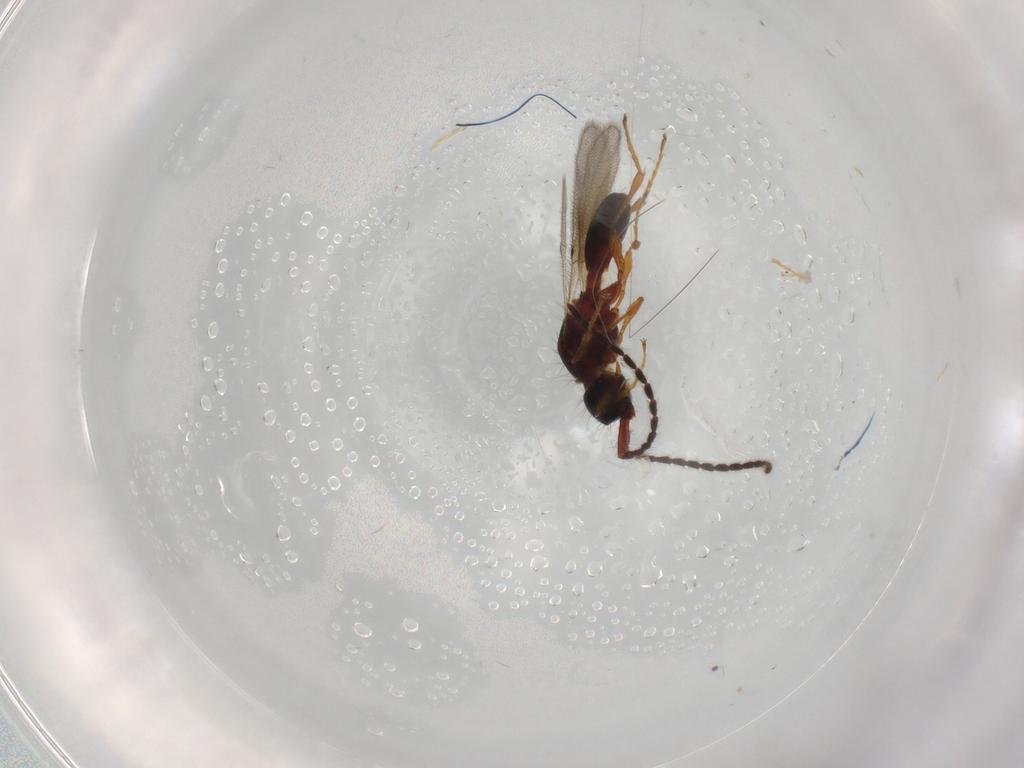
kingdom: Animalia
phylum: Arthropoda
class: Insecta
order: Hymenoptera
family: Diapriidae
